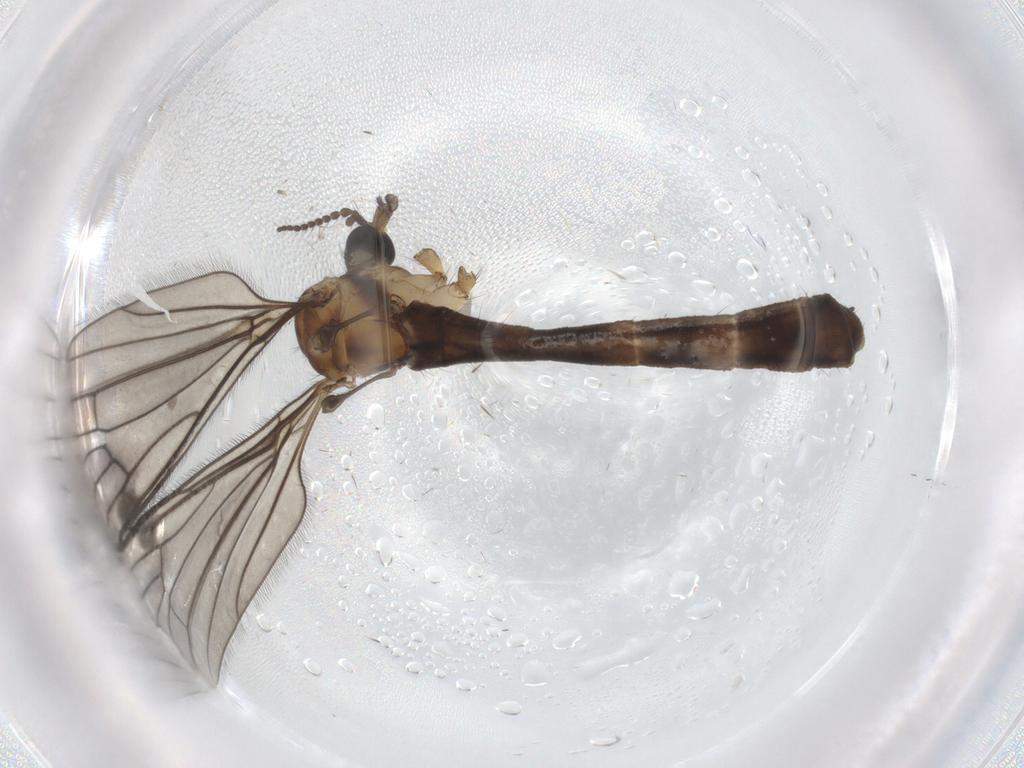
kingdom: Animalia
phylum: Arthropoda
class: Insecta
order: Diptera
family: Limoniidae
